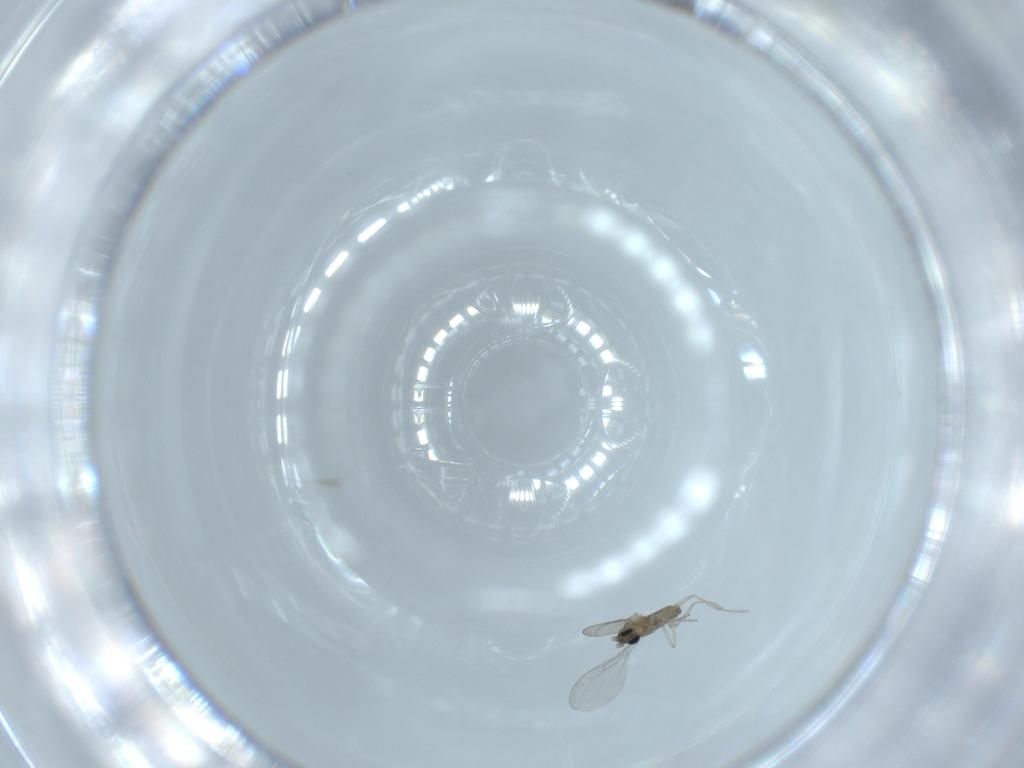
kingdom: Animalia
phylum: Arthropoda
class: Insecta
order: Diptera
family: Cecidomyiidae
